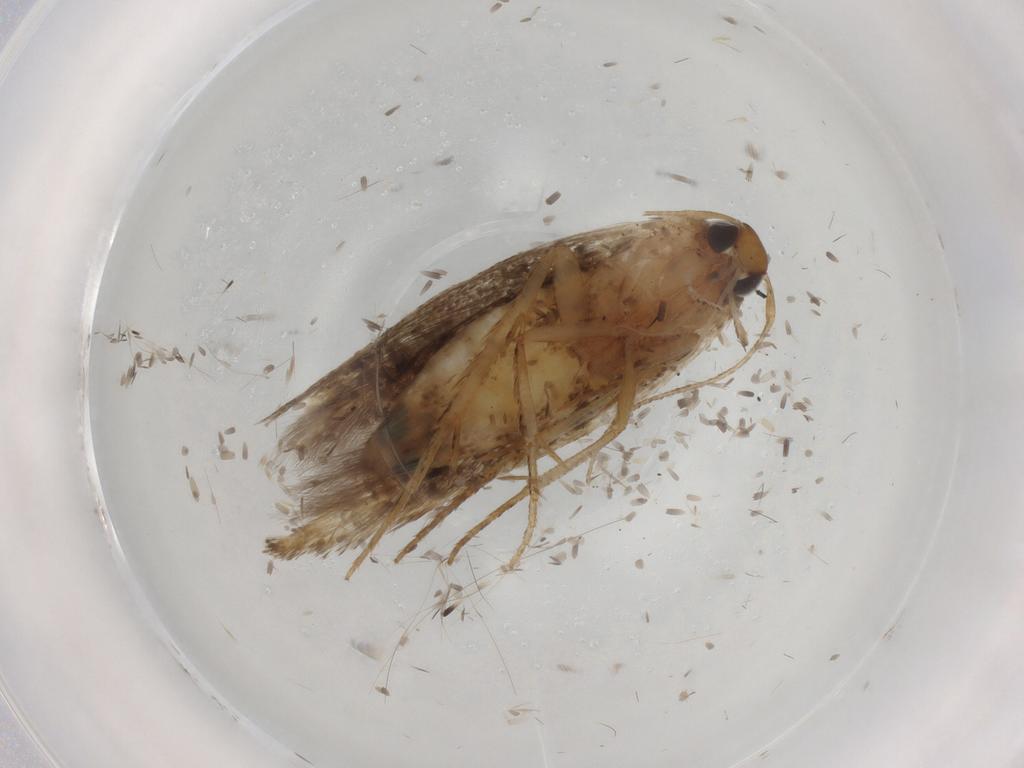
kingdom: Animalia
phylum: Arthropoda
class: Insecta
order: Lepidoptera
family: Cosmopterigidae
